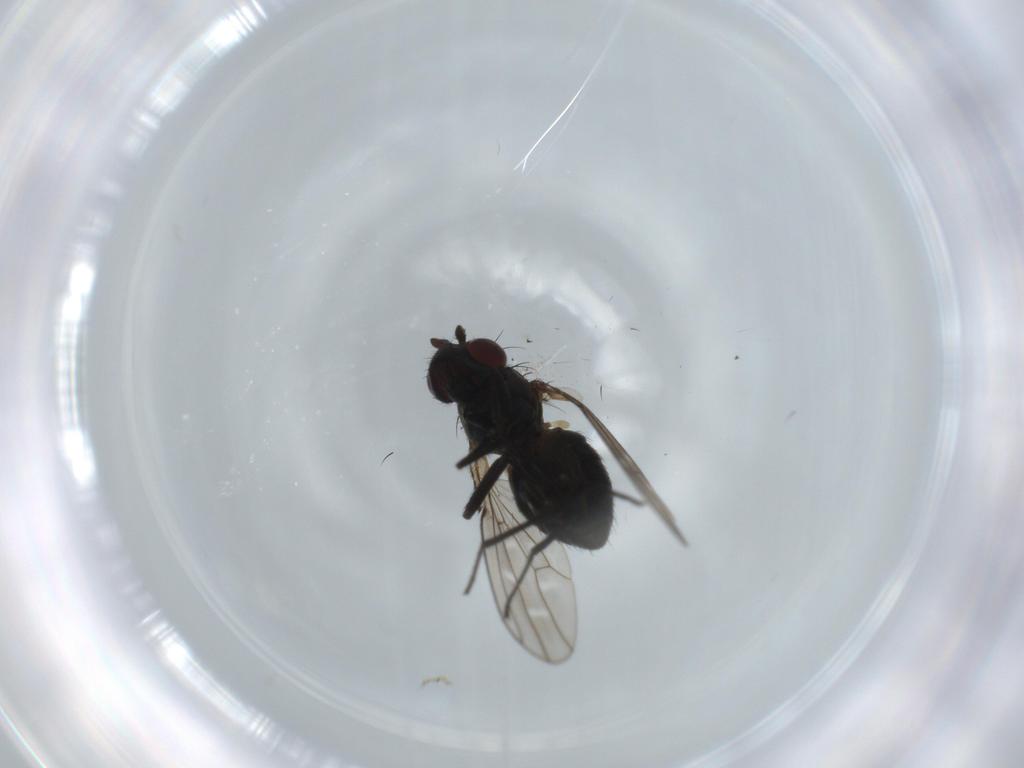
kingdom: Animalia
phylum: Arthropoda
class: Insecta
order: Diptera
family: Ephydridae
